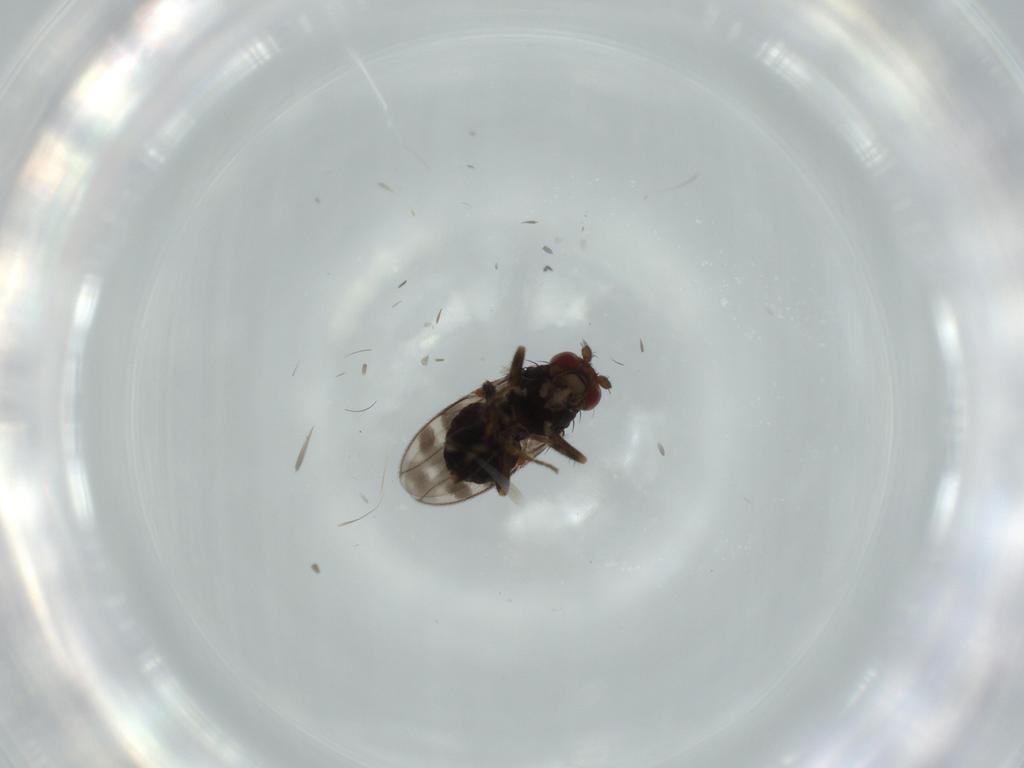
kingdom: Animalia
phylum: Arthropoda
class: Insecta
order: Diptera
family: Sphaeroceridae
